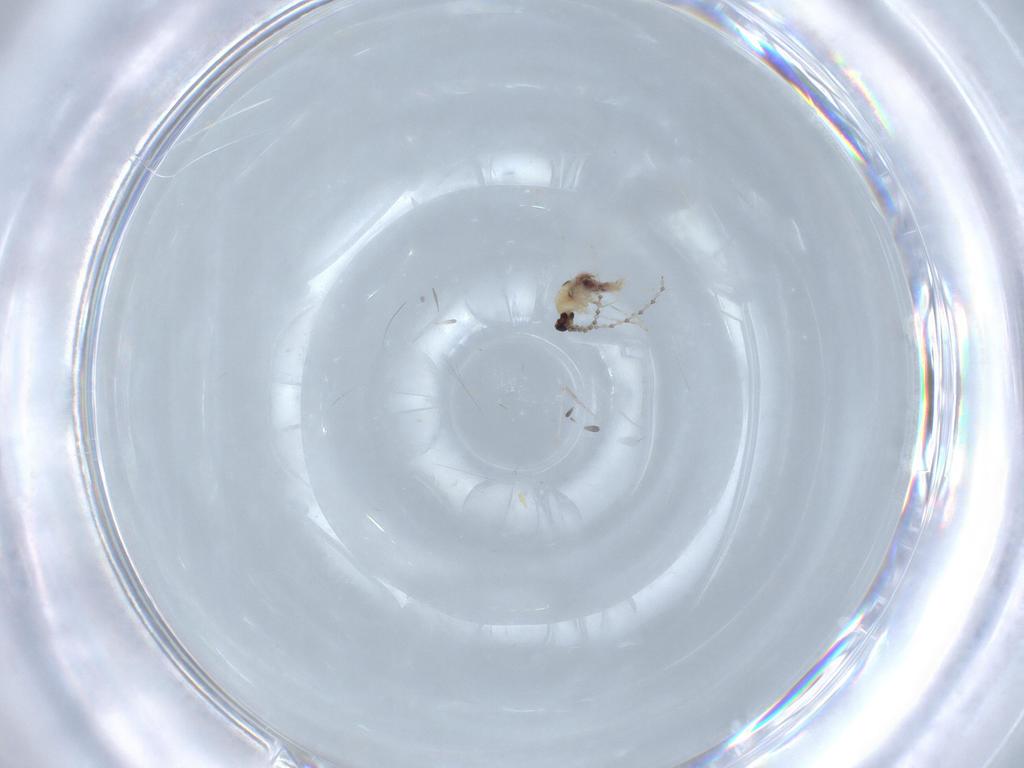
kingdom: Animalia
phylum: Arthropoda
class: Insecta
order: Diptera
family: Cecidomyiidae
